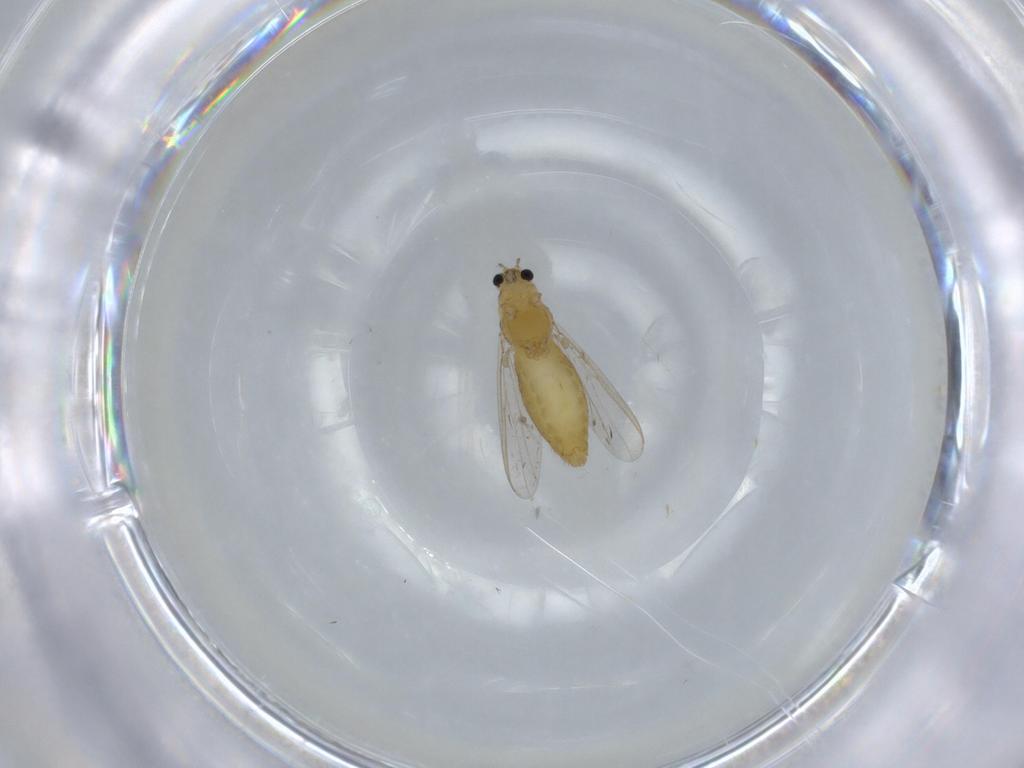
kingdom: Animalia
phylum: Arthropoda
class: Insecta
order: Diptera
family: Chironomidae
